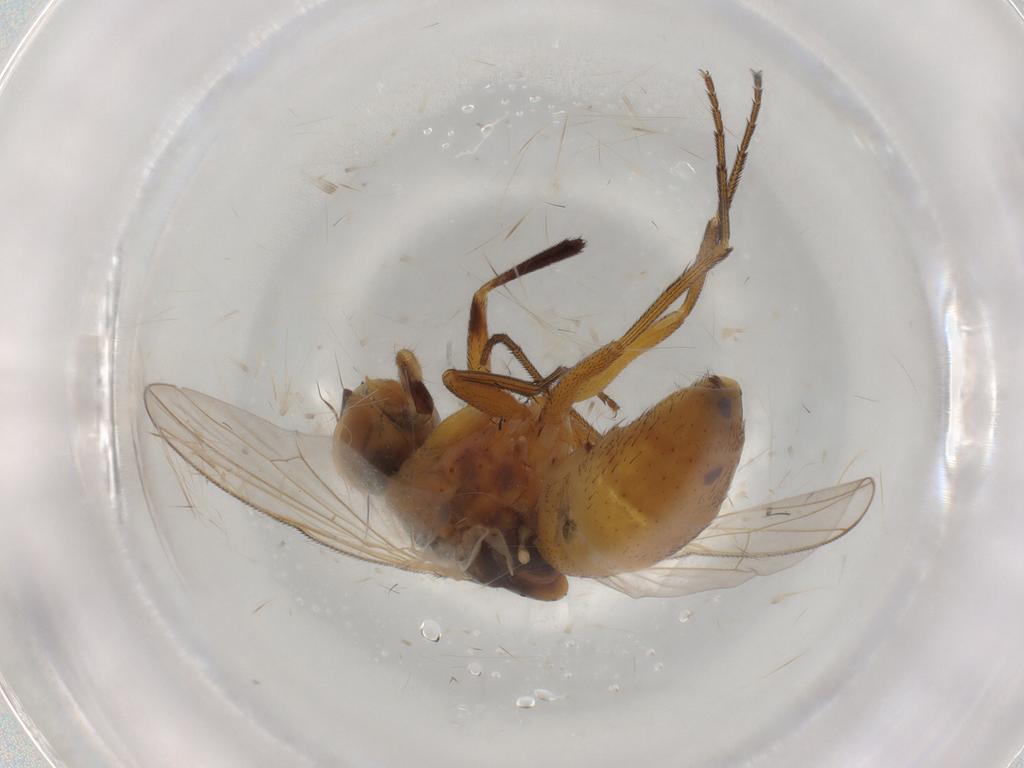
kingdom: Animalia
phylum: Arthropoda
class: Insecta
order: Diptera
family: Muscidae
